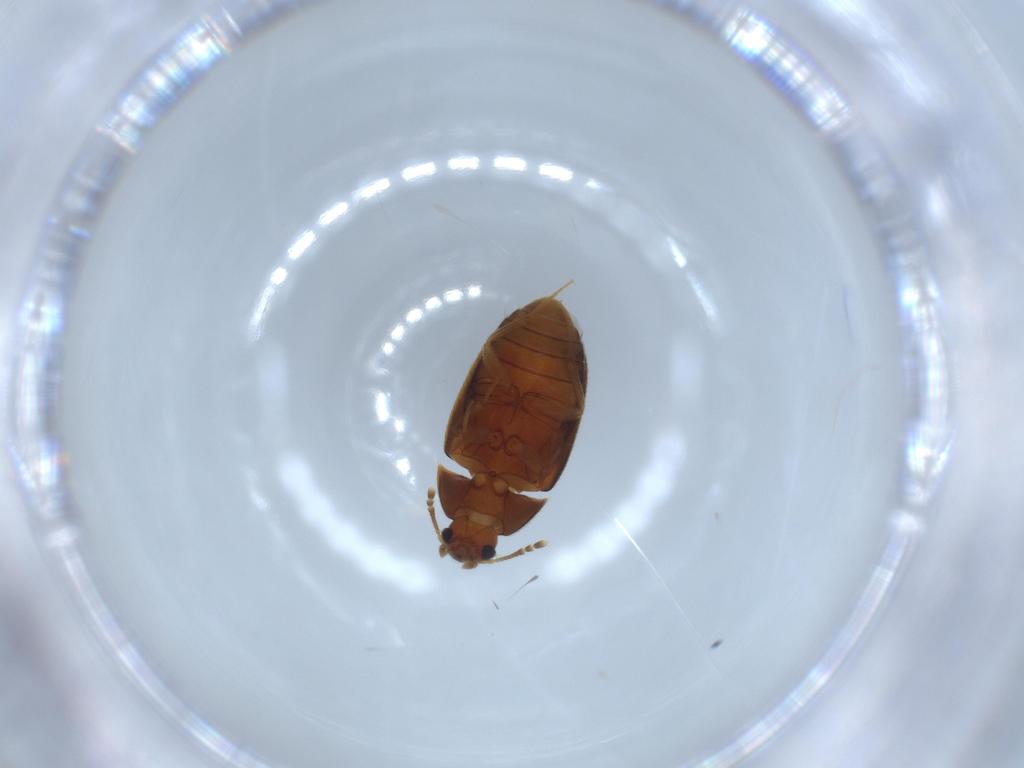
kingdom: Animalia
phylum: Arthropoda
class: Insecta
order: Coleoptera
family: Mycetophagidae
